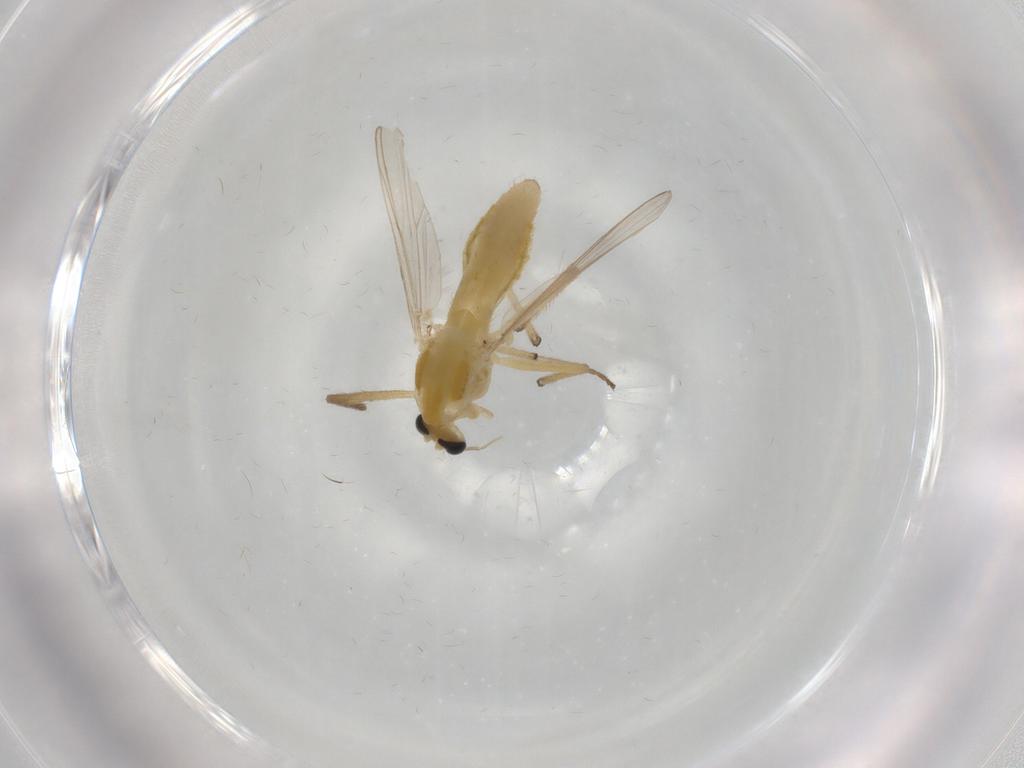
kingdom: Animalia
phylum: Arthropoda
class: Insecta
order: Diptera
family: Chironomidae
